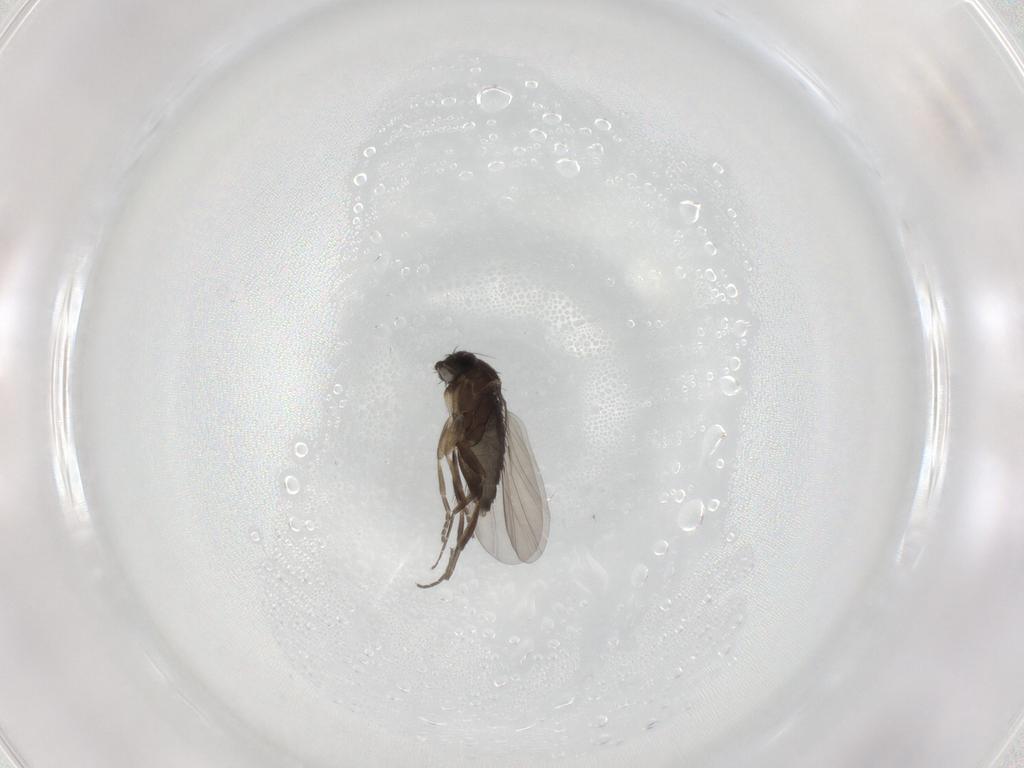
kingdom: Animalia
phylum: Arthropoda
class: Insecta
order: Diptera
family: Phoridae
